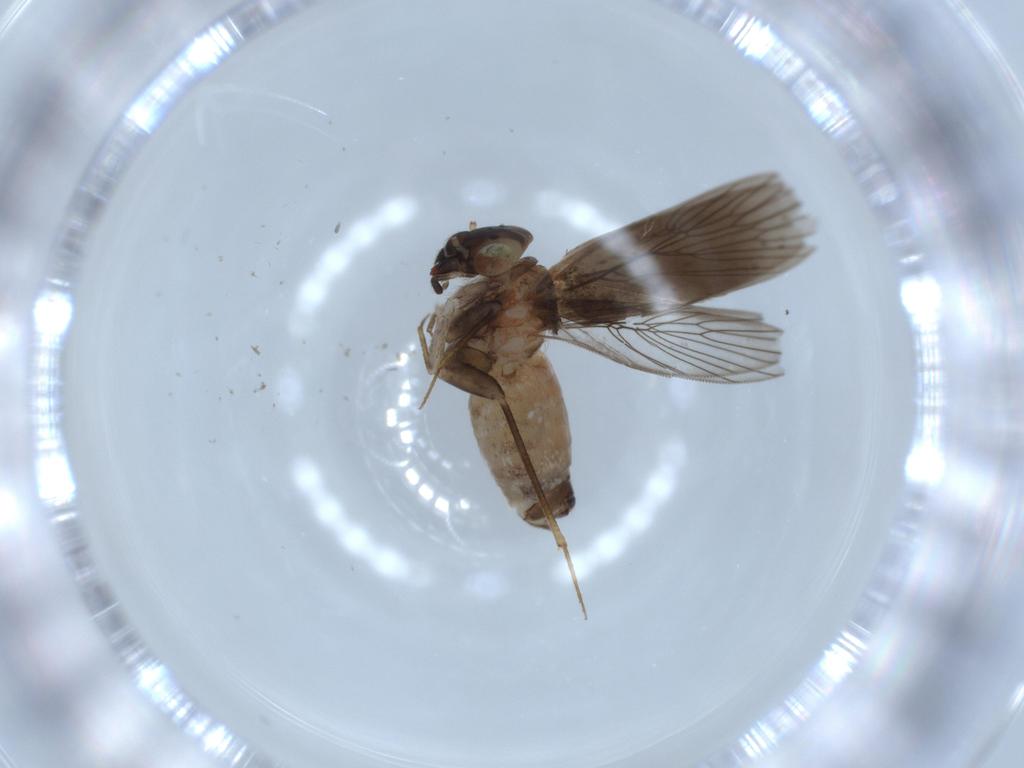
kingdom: Animalia
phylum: Arthropoda
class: Insecta
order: Psocodea
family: Lepidopsocidae
